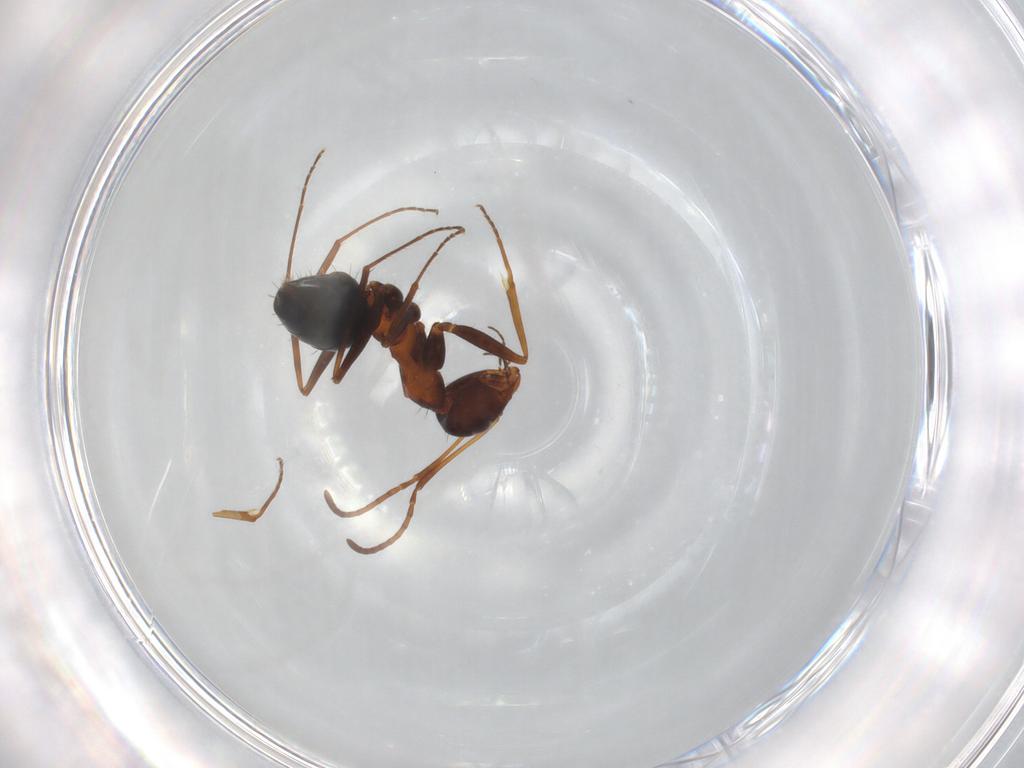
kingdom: Animalia
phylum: Arthropoda
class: Insecta
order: Hymenoptera
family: Formicidae
